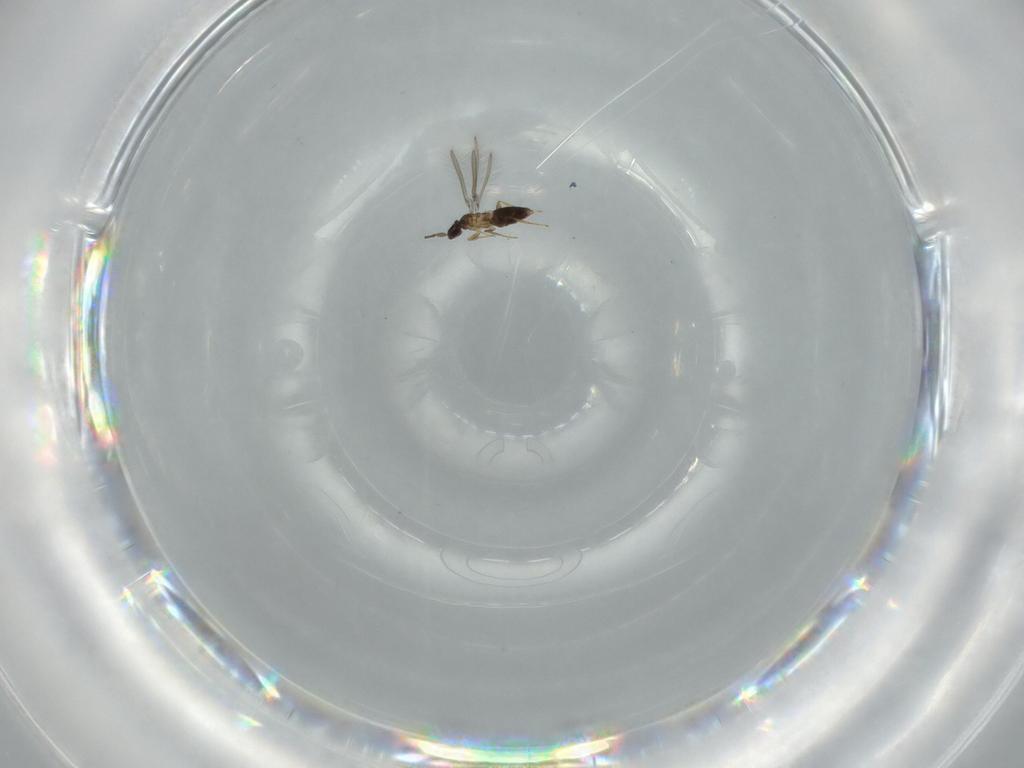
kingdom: Animalia
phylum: Arthropoda
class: Insecta
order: Hymenoptera
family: Mymaridae
